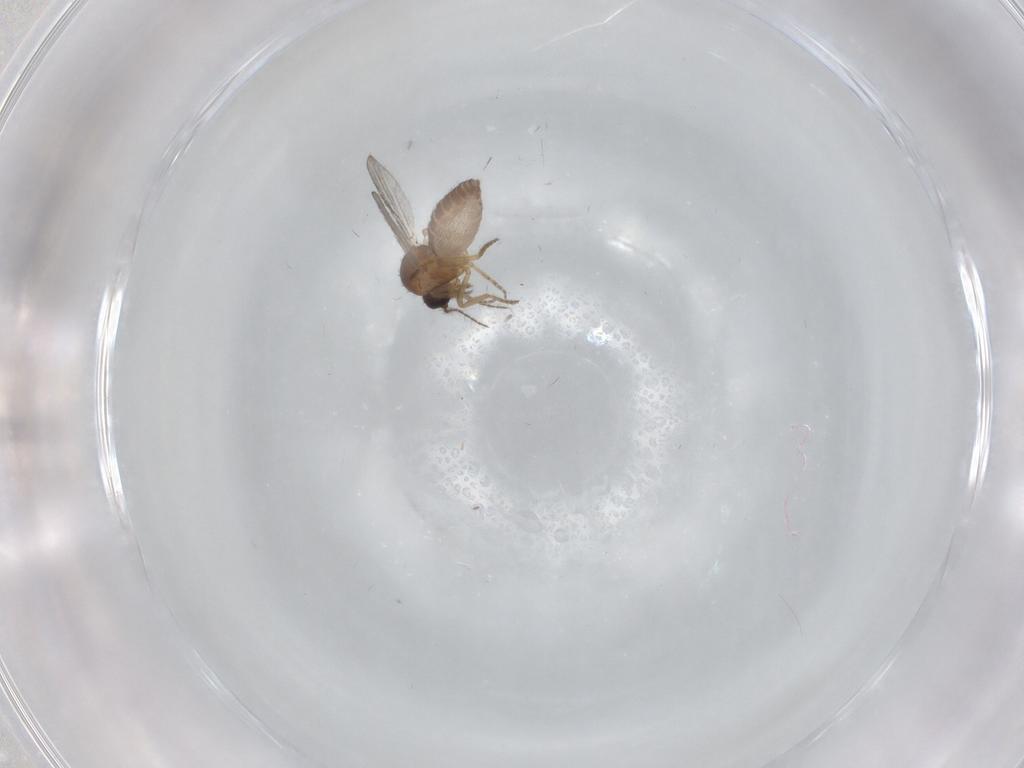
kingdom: Animalia
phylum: Arthropoda
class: Insecta
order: Diptera
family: Ceratopogonidae
